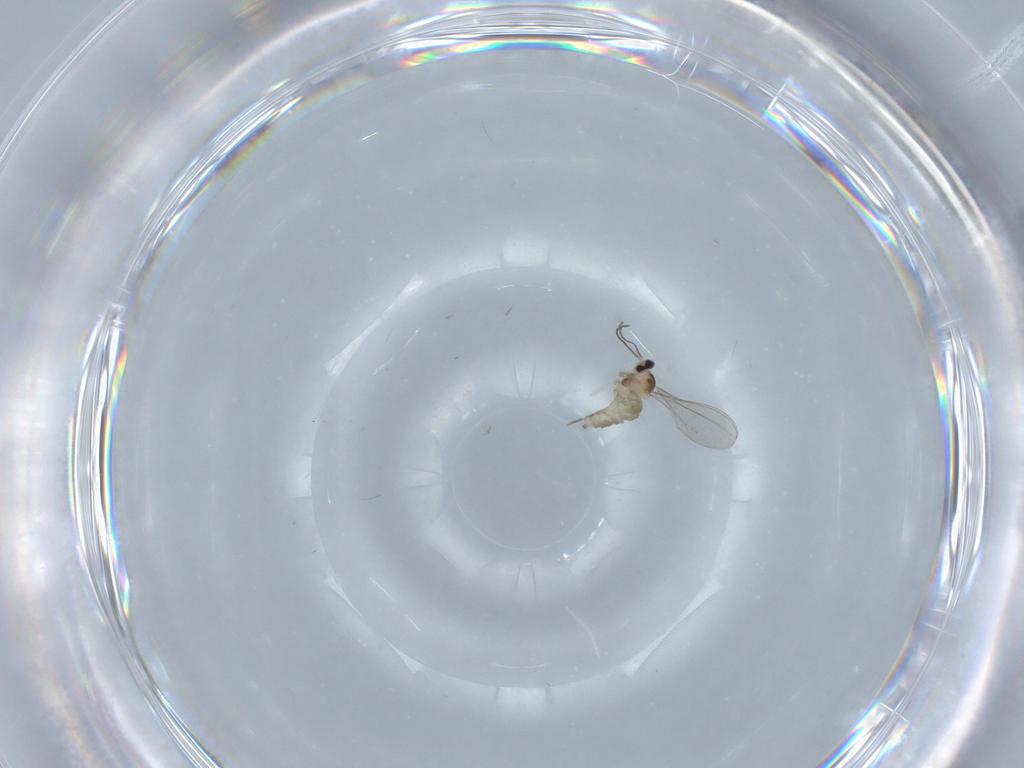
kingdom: Animalia
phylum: Arthropoda
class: Insecta
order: Diptera
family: Cecidomyiidae
